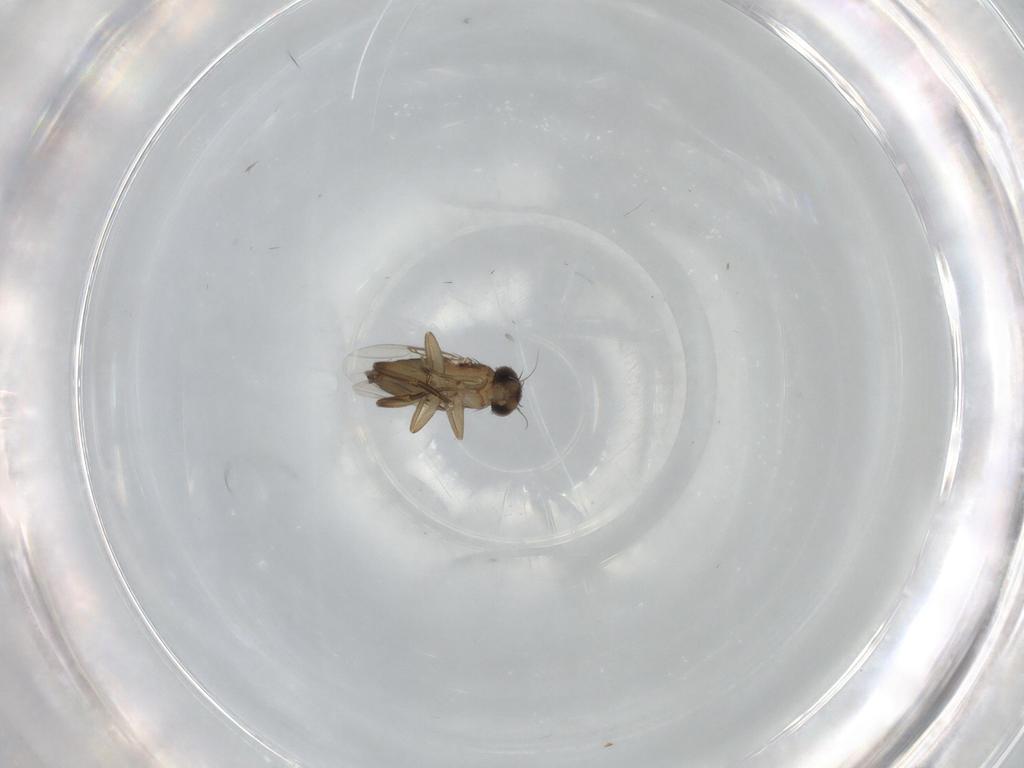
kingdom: Animalia
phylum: Arthropoda
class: Insecta
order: Diptera
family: Phoridae
